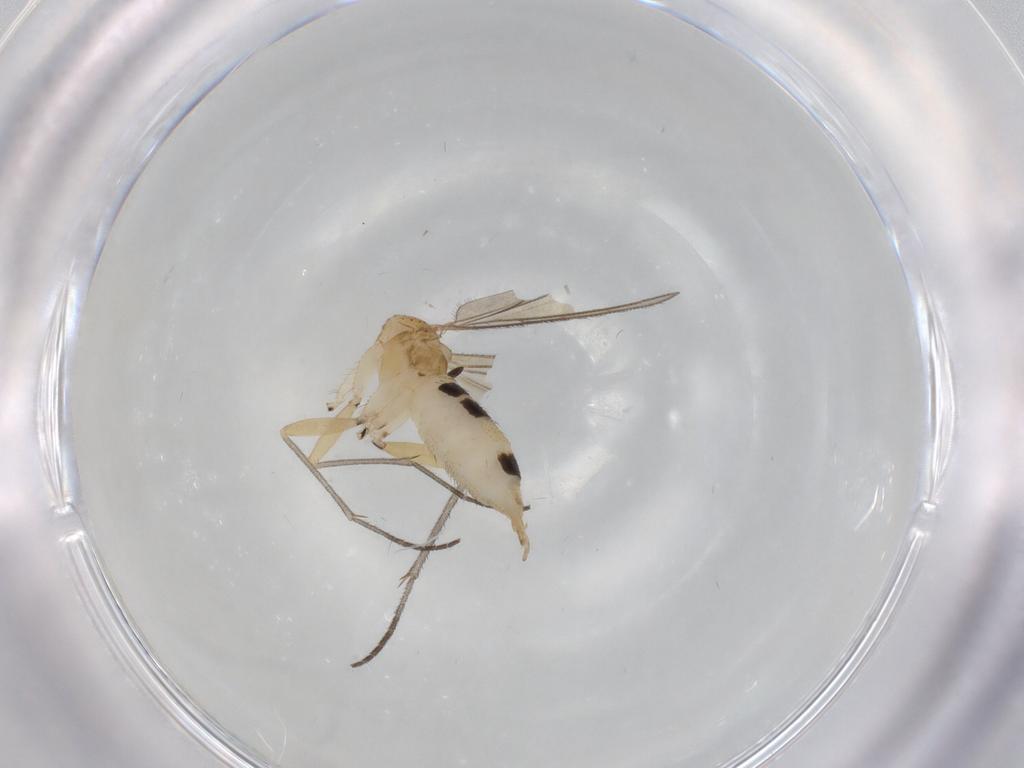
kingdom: Animalia
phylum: Arthropoda
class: Insecta
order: Diptera
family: Sciaridae
